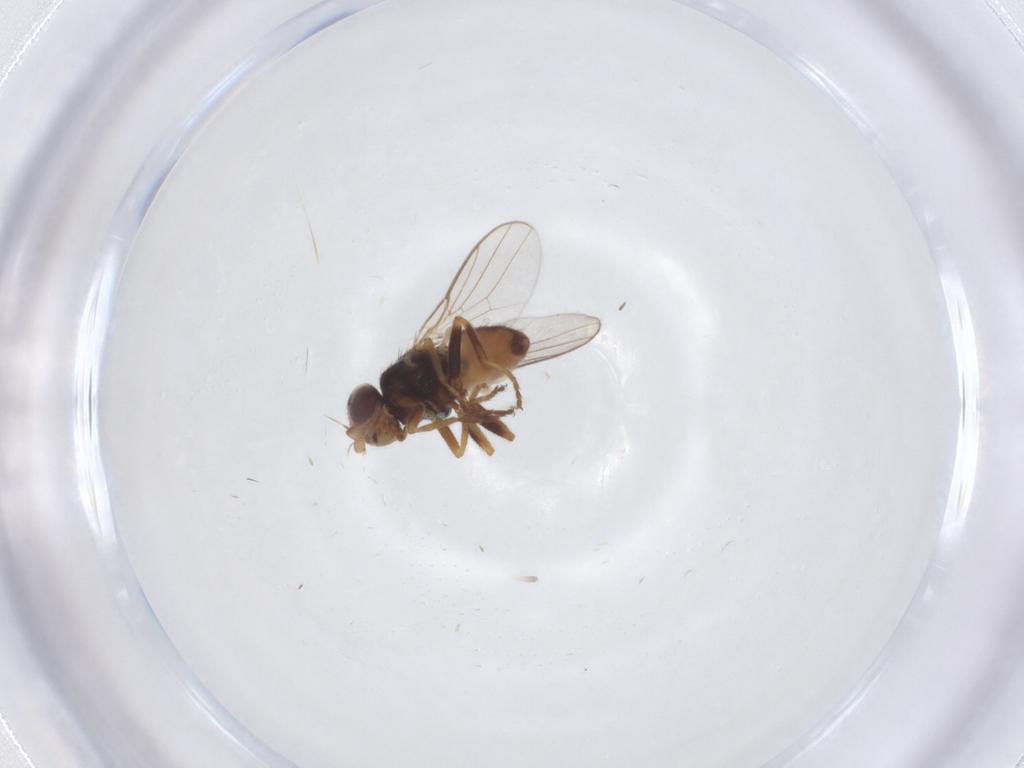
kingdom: Animalia
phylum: Arthropoda
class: Insecta
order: Diptera
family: Chloropidae
